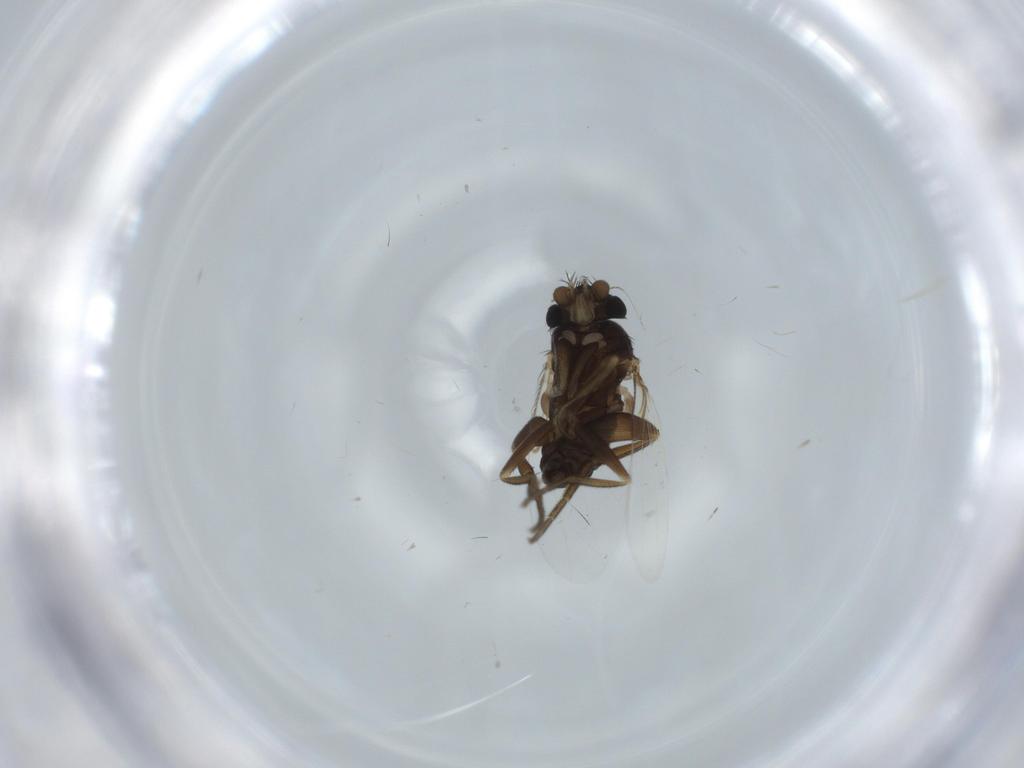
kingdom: Animalia
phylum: Arthropoda
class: Insecta
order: Diptera
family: Phoridae
